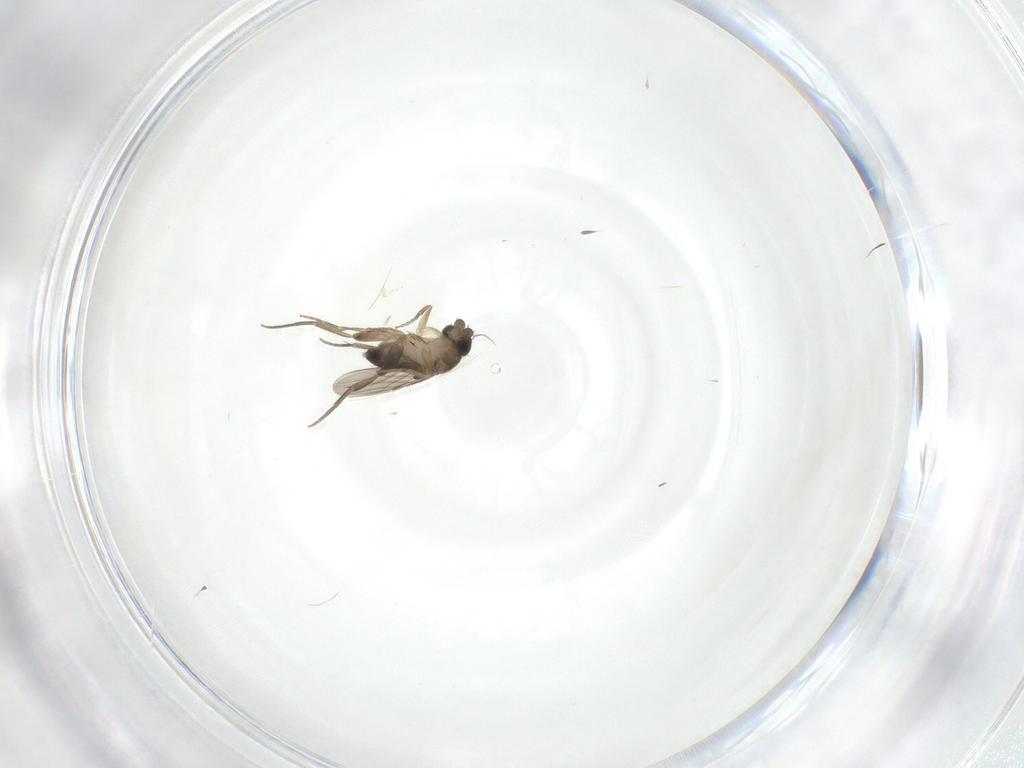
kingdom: Animalia
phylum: Arthropoda
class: Insecta
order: Diptera
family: Phoridae
